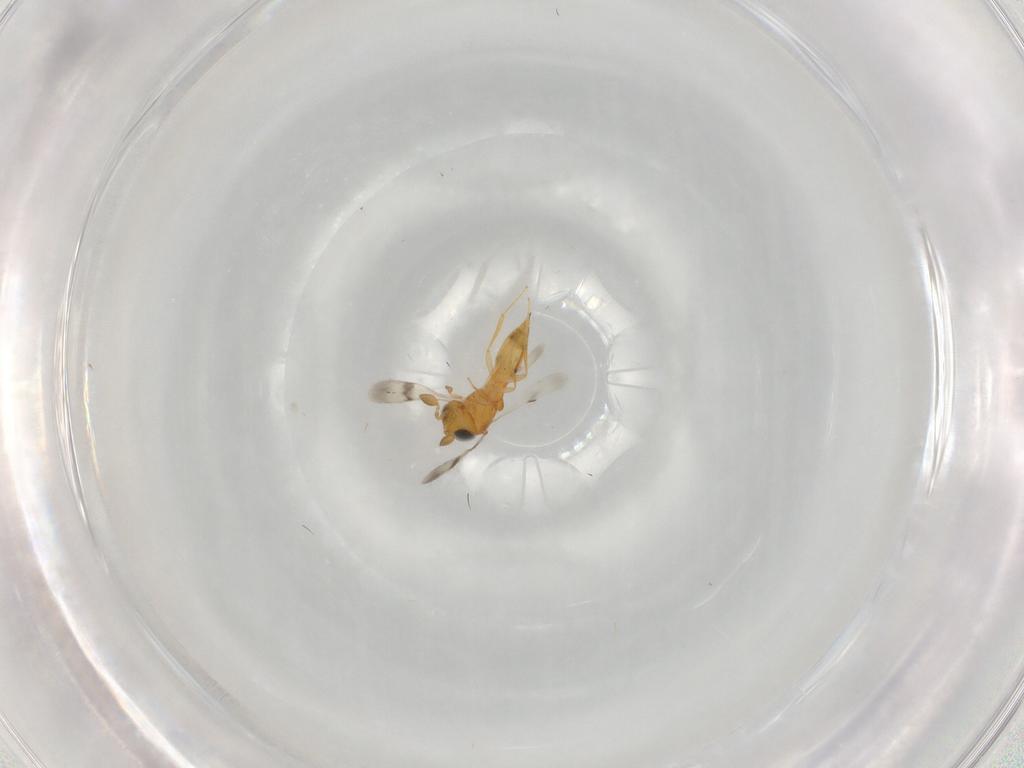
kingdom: Animalia
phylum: Arthropoda
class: Insecta
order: Hymenoptera
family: Scelionidae
